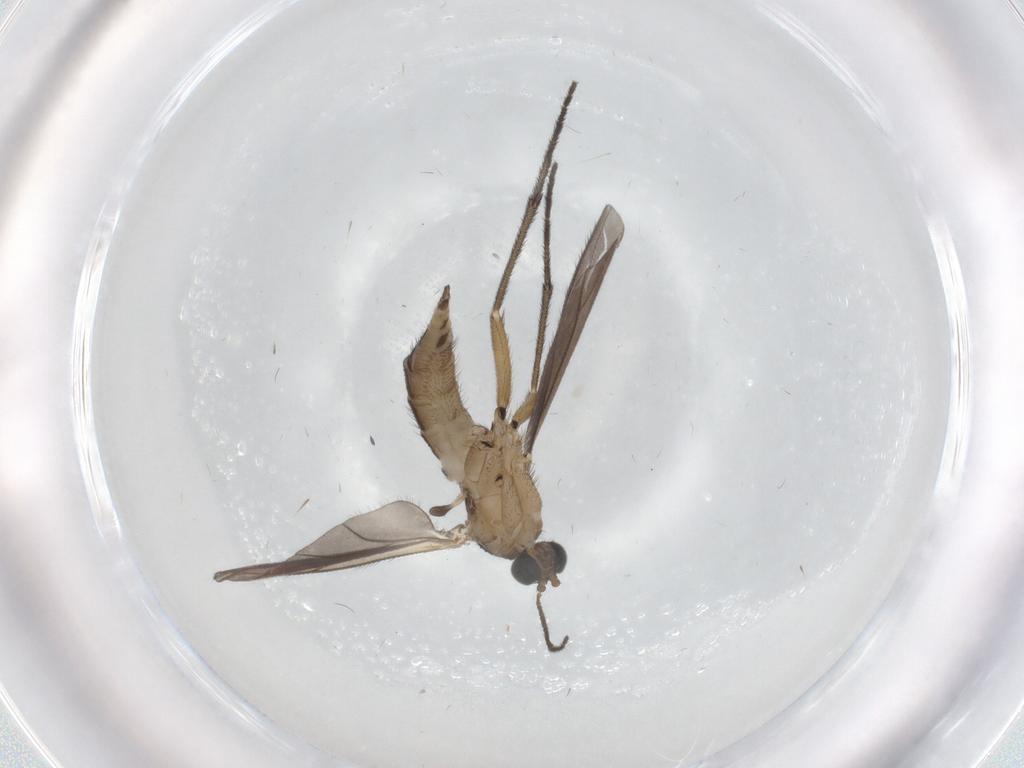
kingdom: Animalia
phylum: Arthropoda
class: Insecta
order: Diptera
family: Sciaridae
